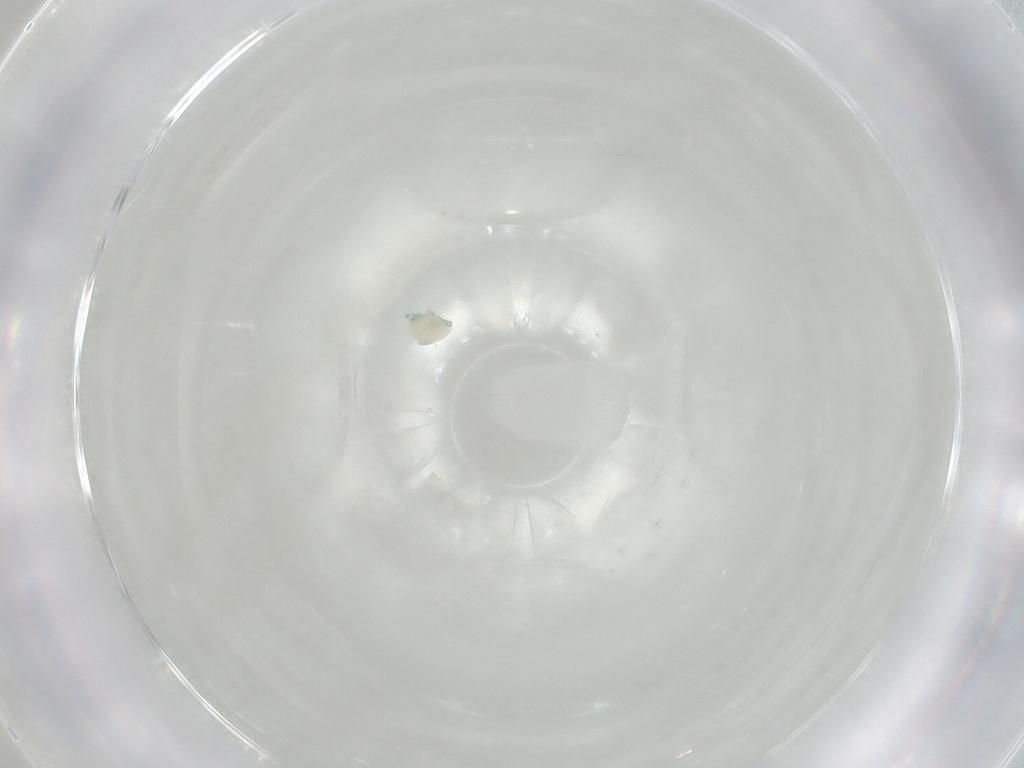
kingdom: Animalia
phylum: Arthropoda
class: Arachnida
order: Trombidiformes
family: Arrenuridae
